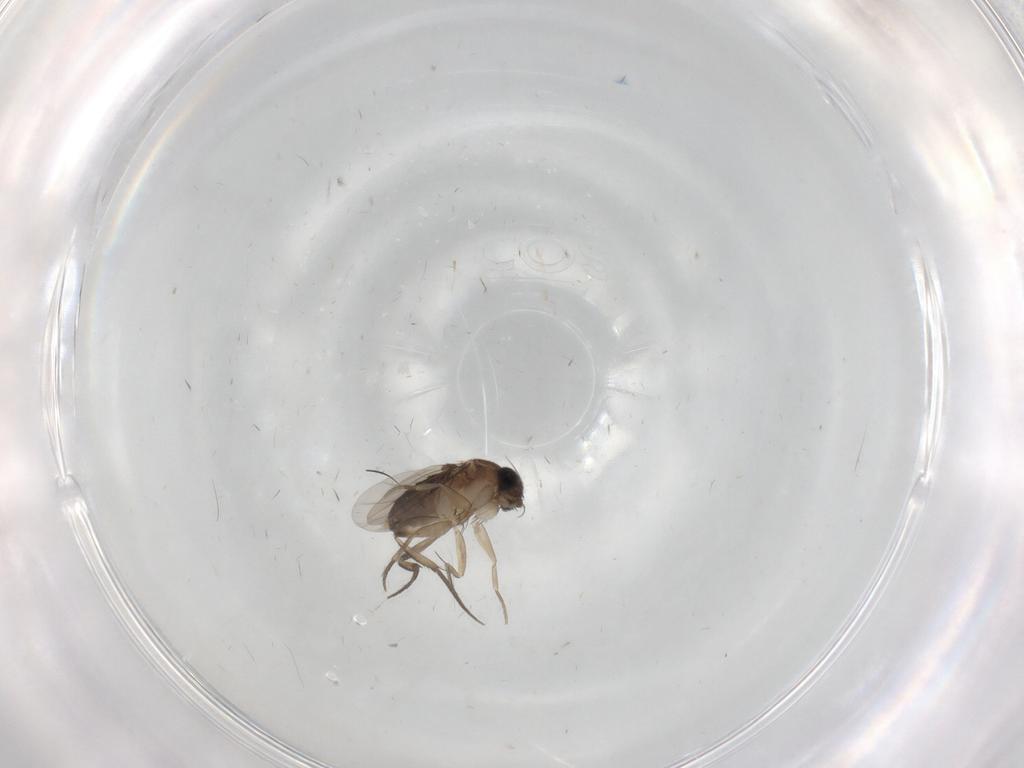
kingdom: Animalia
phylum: Arthropoda
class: Insecta
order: Diptera
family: Phoridae
